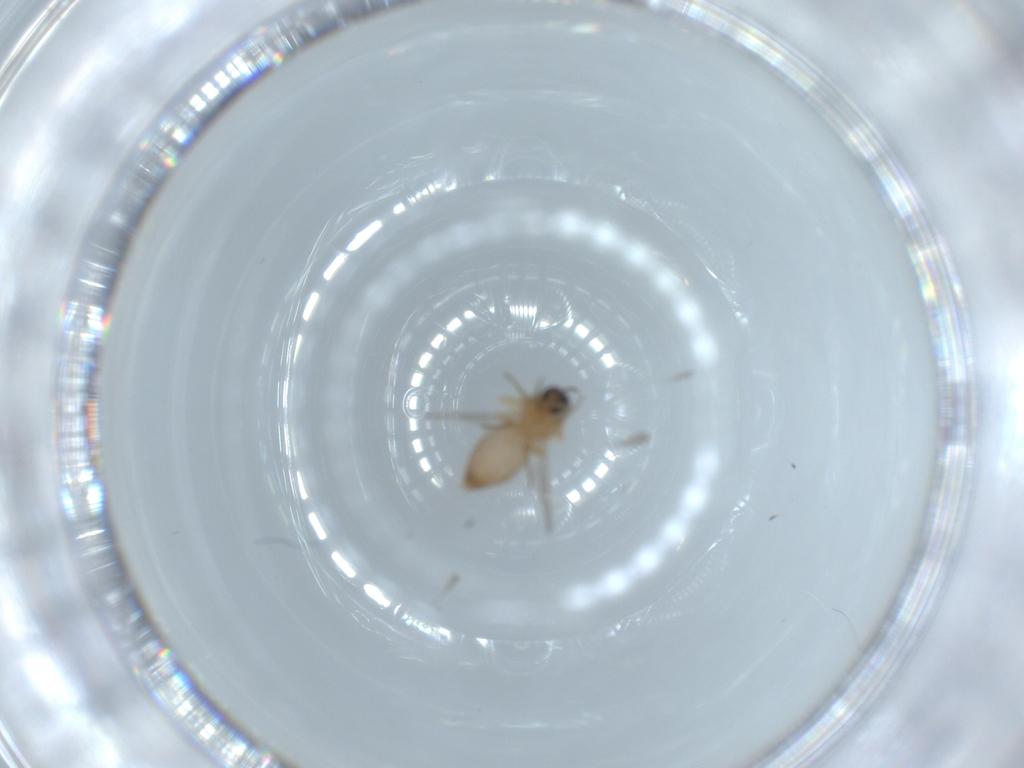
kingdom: Animalia
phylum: Arthropoda
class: Insecta
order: Diptera
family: Ceratopogonidae
